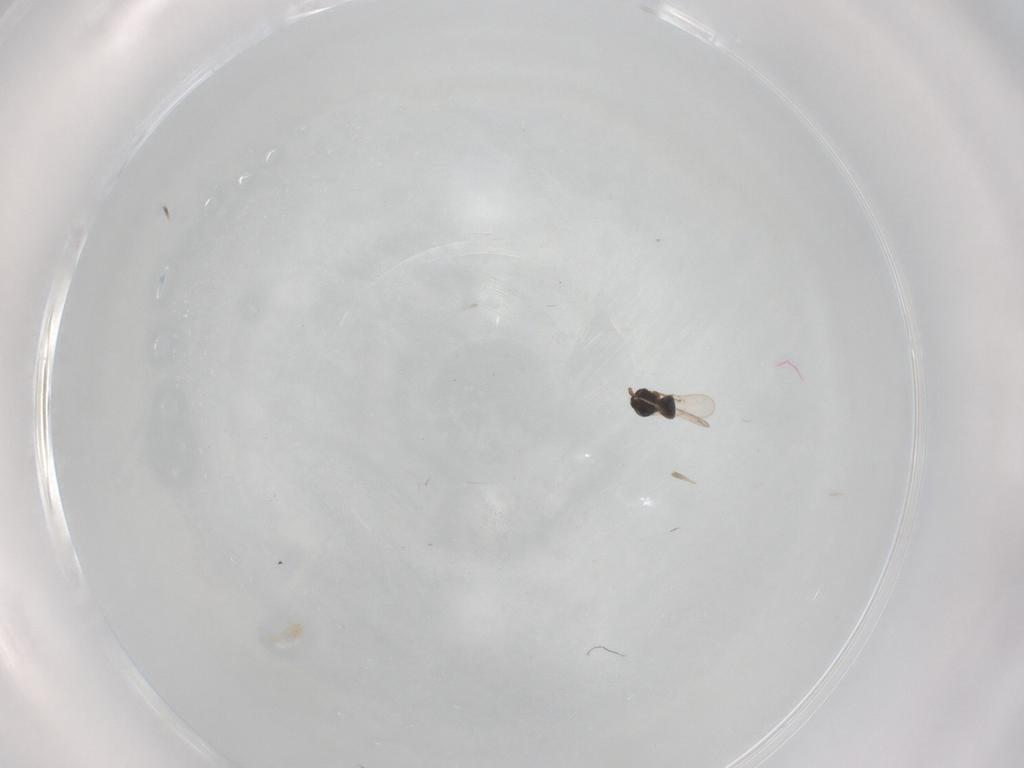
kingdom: Animalia
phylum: Arthropoda
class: Insecta
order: Hymenoptera
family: Scelionidae
